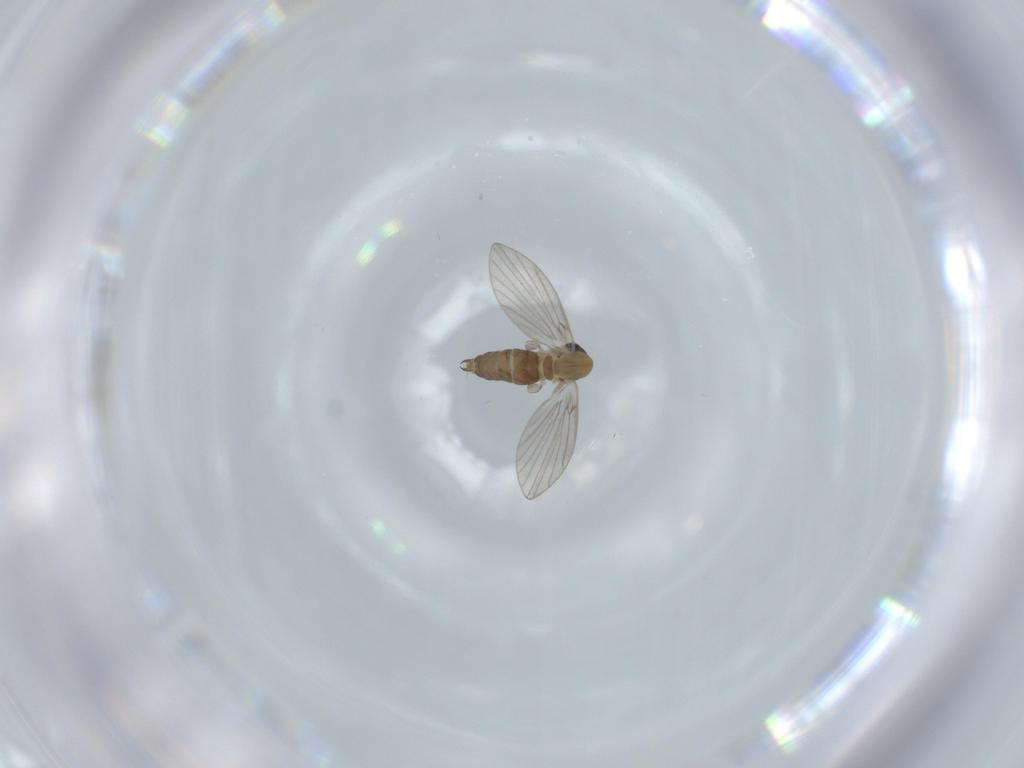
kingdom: Animalia
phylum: Arthropoda
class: Insecta
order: Diptera
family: Psychodidae
